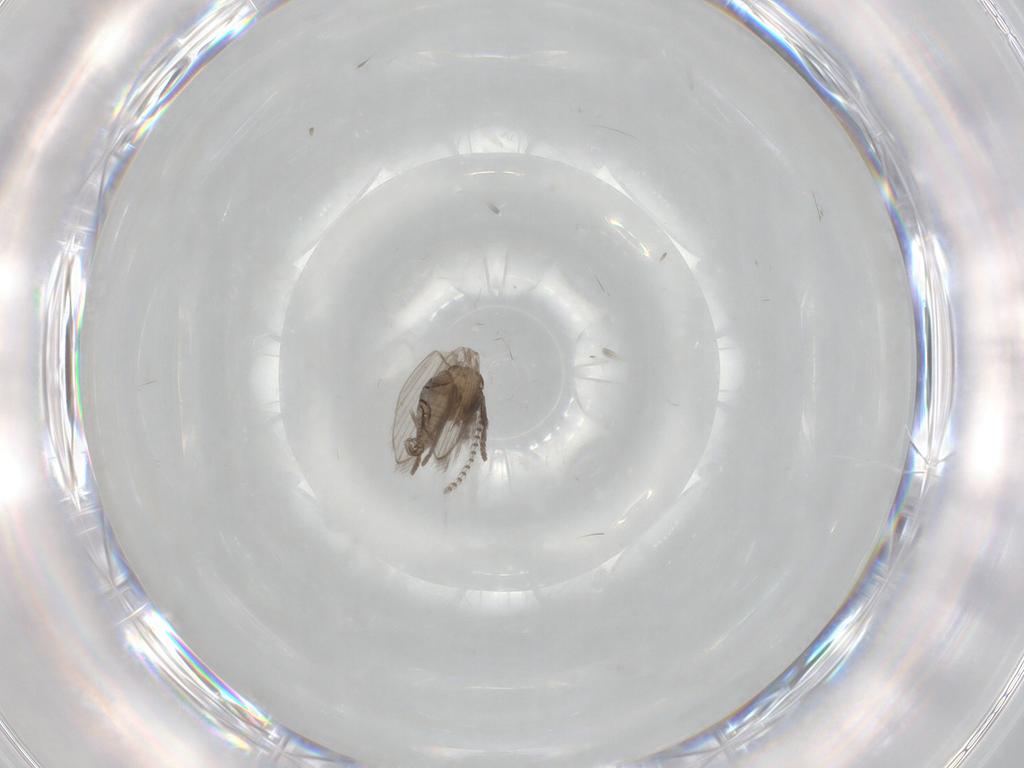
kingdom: Animalia
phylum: Arthropoda
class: Insecta
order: Diptera
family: Psychodidae
